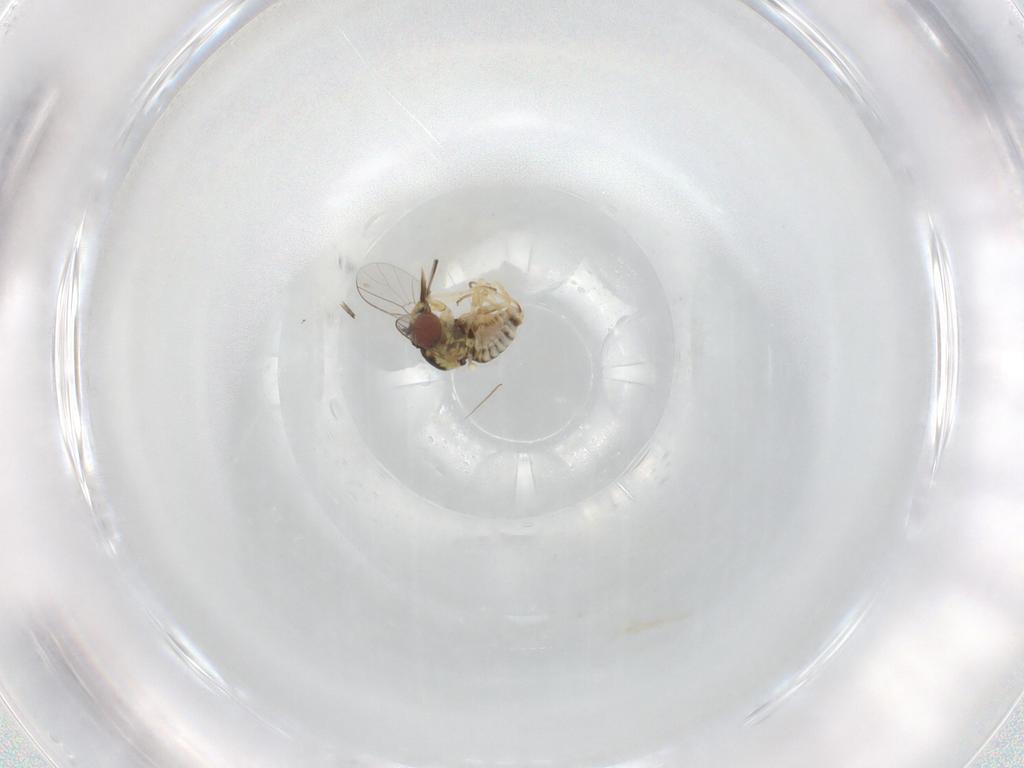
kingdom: Animalia
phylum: Arthropoda
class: Insecta
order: Diptera
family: Bombyliidae
